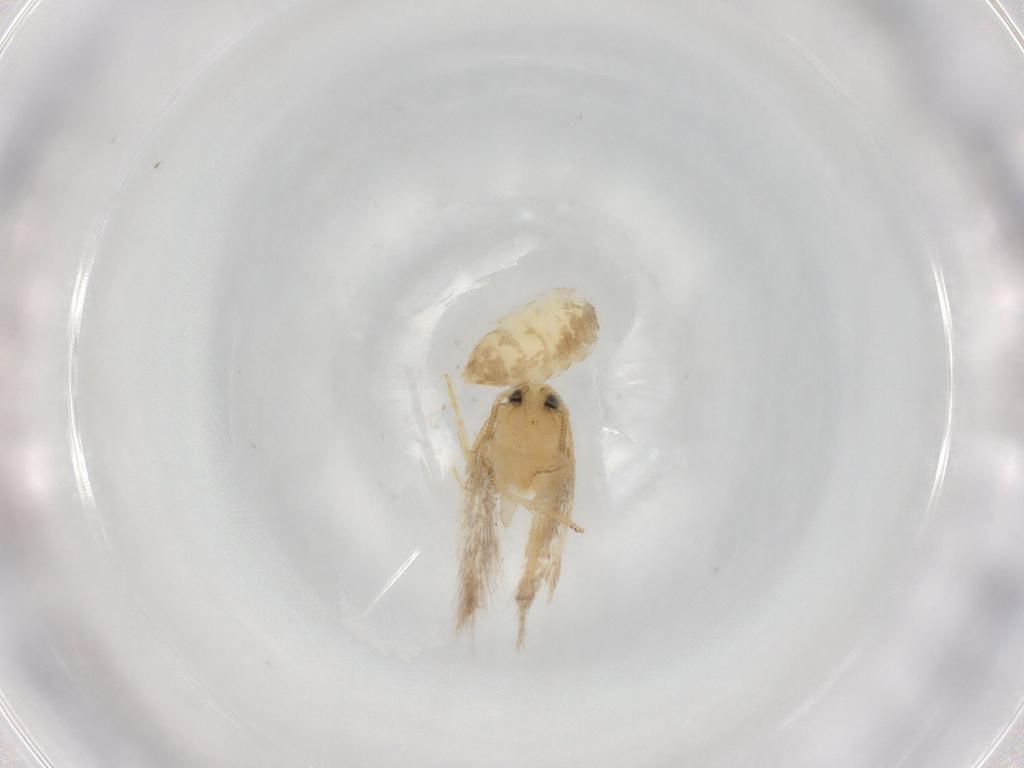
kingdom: Animalia
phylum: Arthropoda
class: Insecta
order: Lepidoptera
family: Opostegidae
